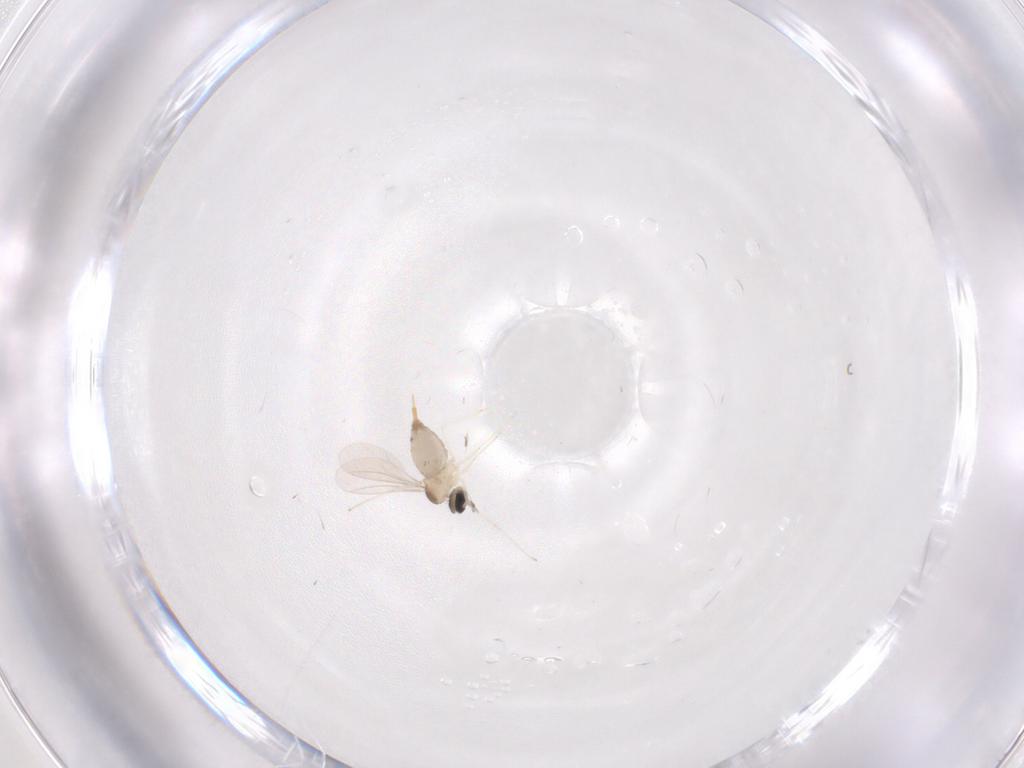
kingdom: Animalia
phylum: Arthropoda
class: Insecta
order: Diptera
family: Cecidomyiidae
